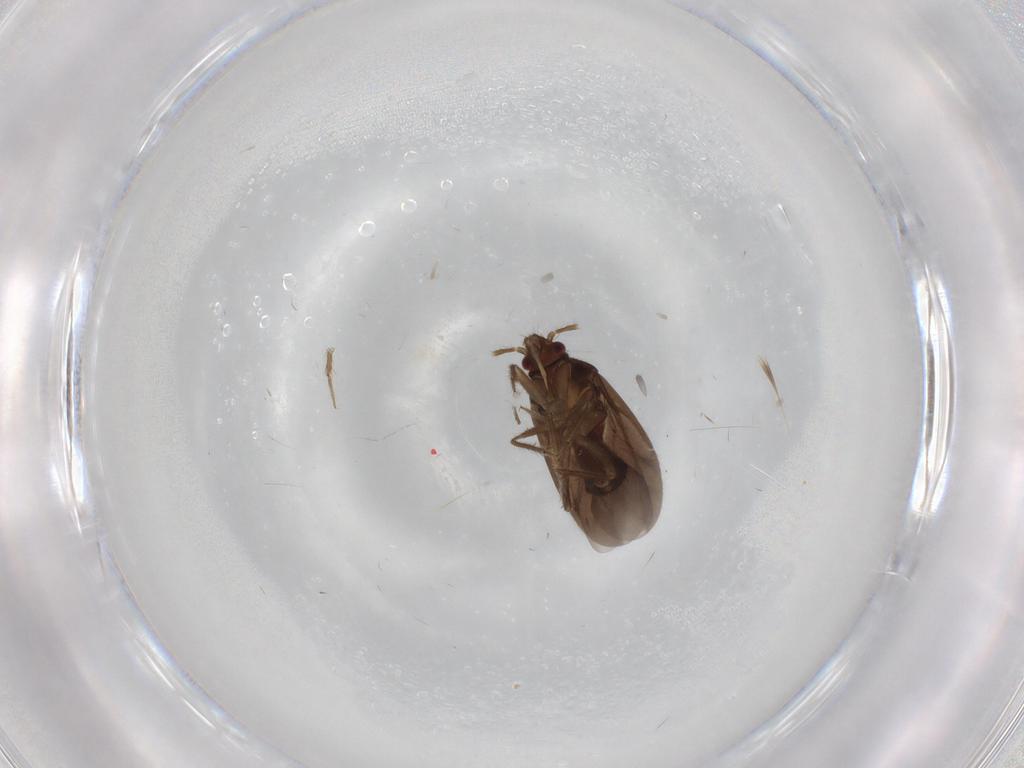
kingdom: Animalia
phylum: Arthropoda
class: Insecta
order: Hemiptera
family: Ceratocombidae
